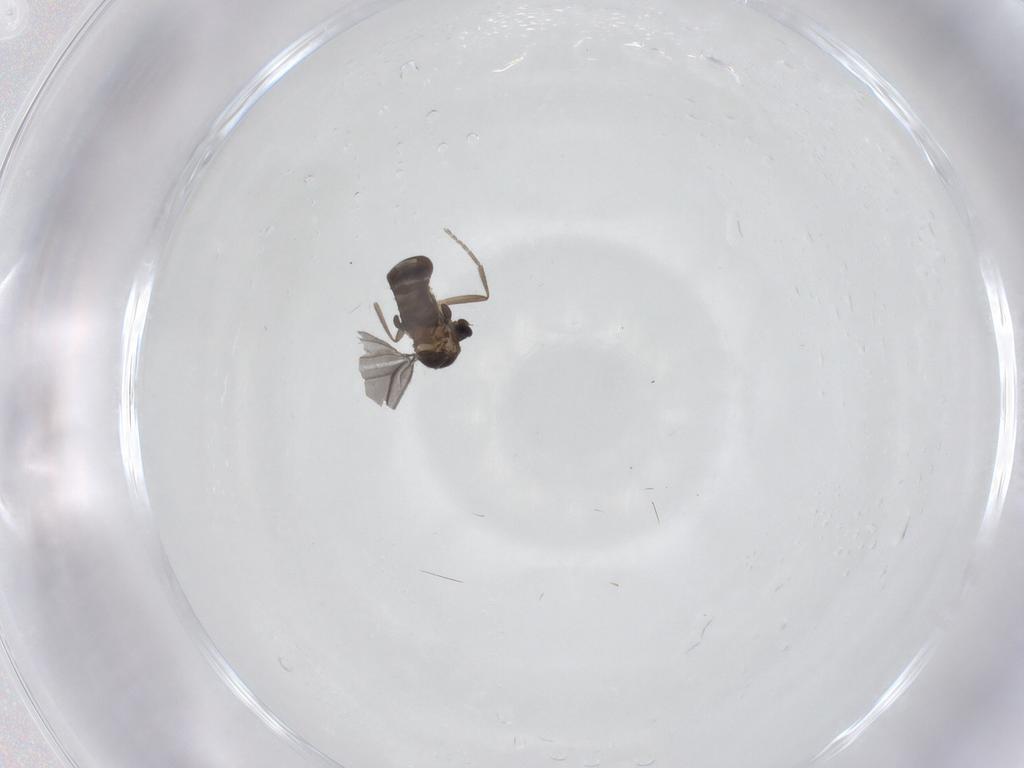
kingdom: Animalia
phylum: Arthropoda
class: Insecta
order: Diptera
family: Phoridae
